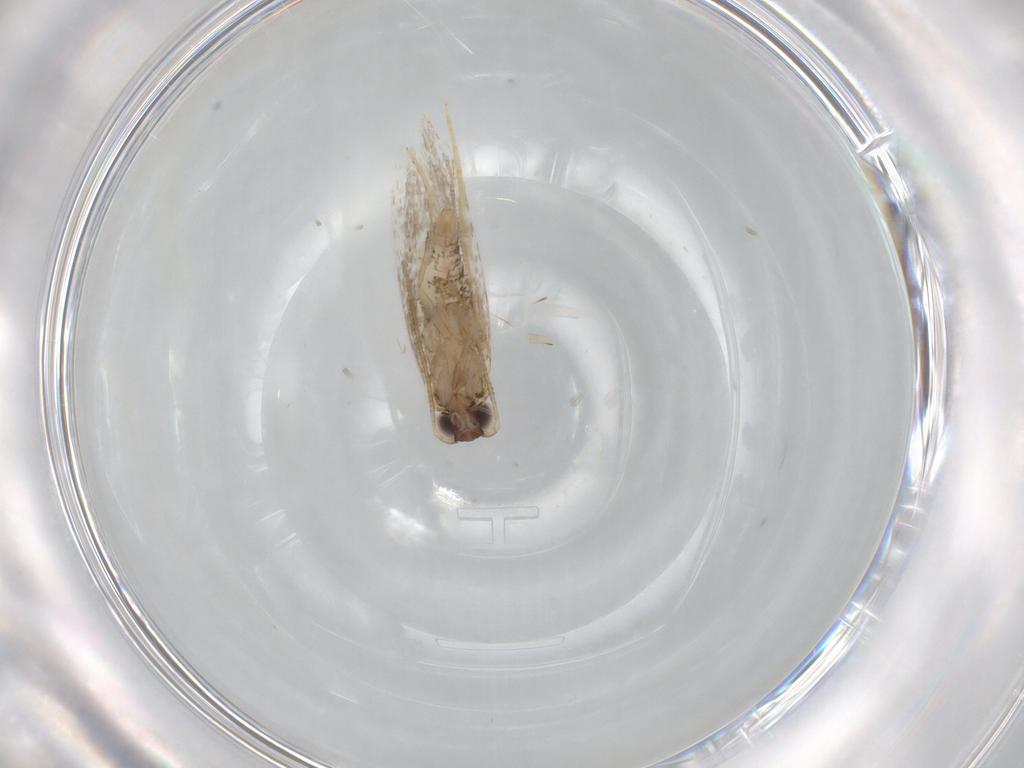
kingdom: Animalia
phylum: Arthropoda
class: Insecta
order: Lepidoptera
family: Tineidae
